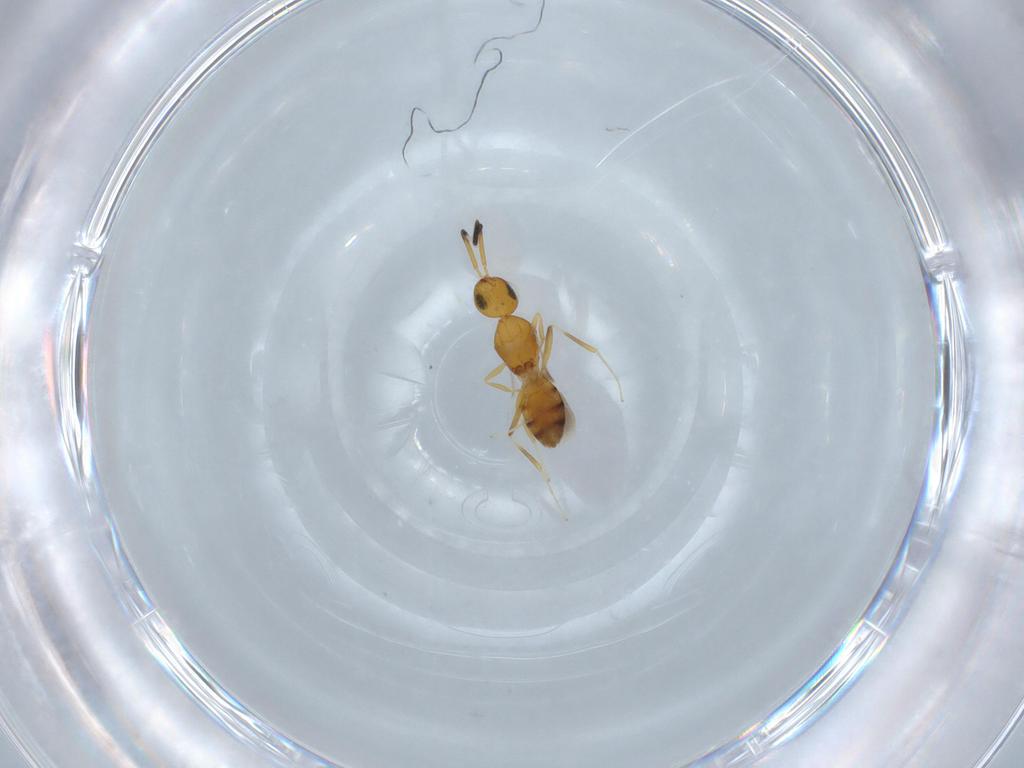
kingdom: Animalia
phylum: Arthropoda
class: Insecta
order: Hymenoptera
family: Scelionidae
